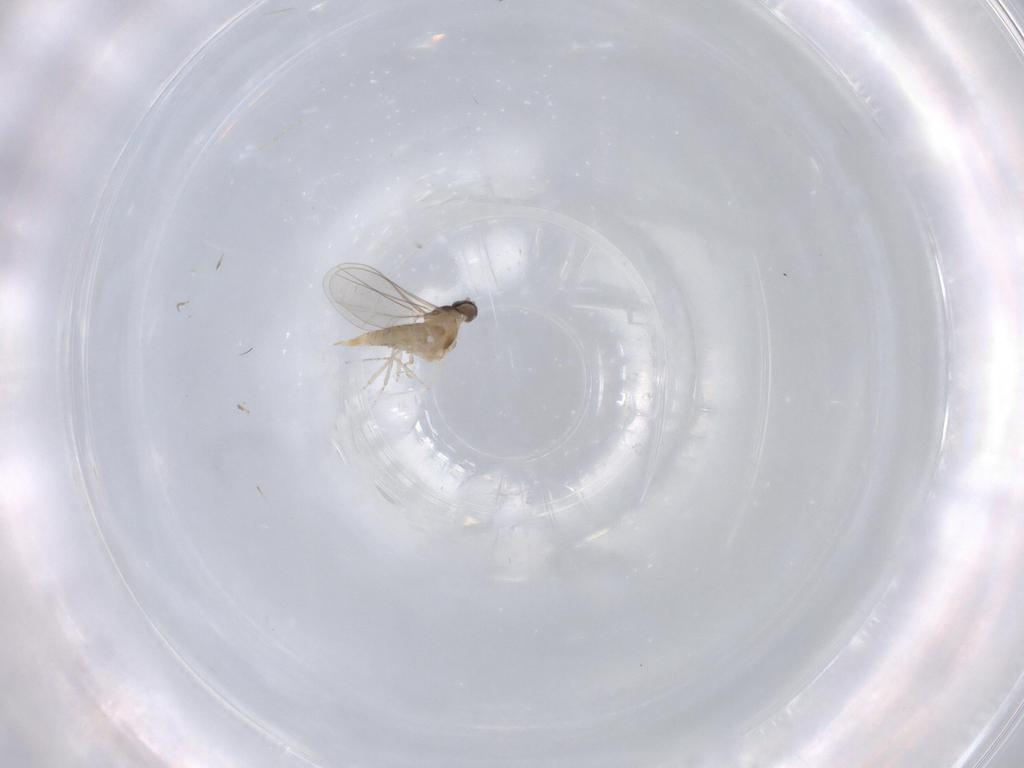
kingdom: Animalia
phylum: Arthropoda
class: Insecta
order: Diptera
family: Cecidomyiidae
